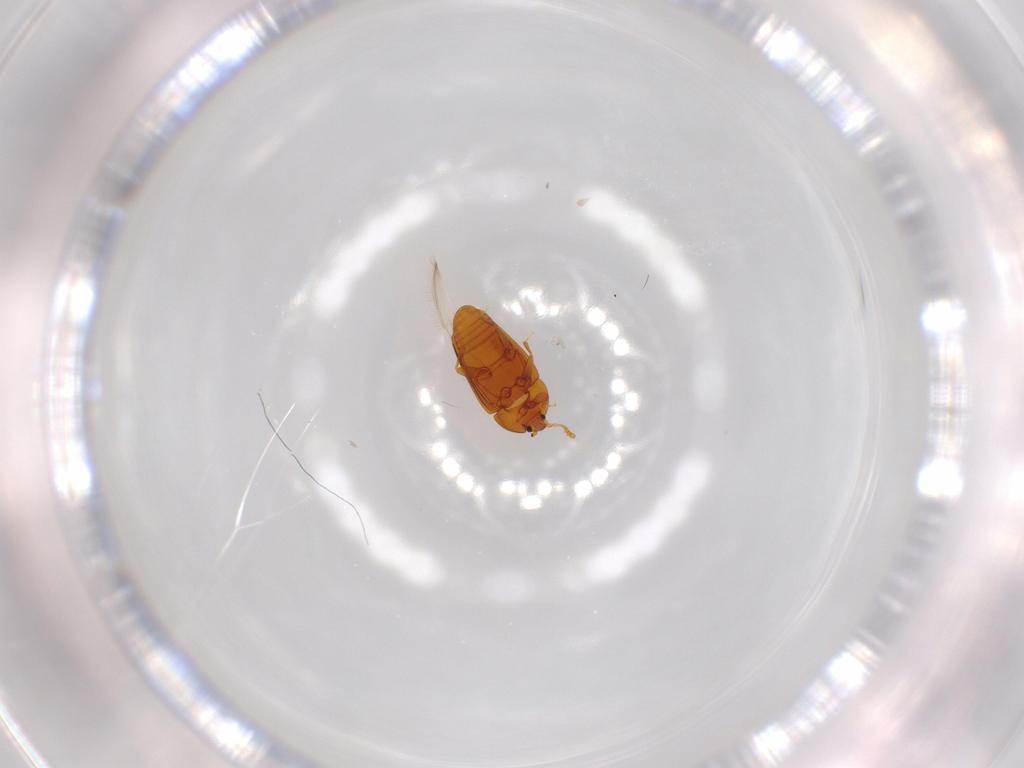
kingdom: Animalia
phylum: Arthropoda
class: Insecta
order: Coleoptera
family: Corylophidae
